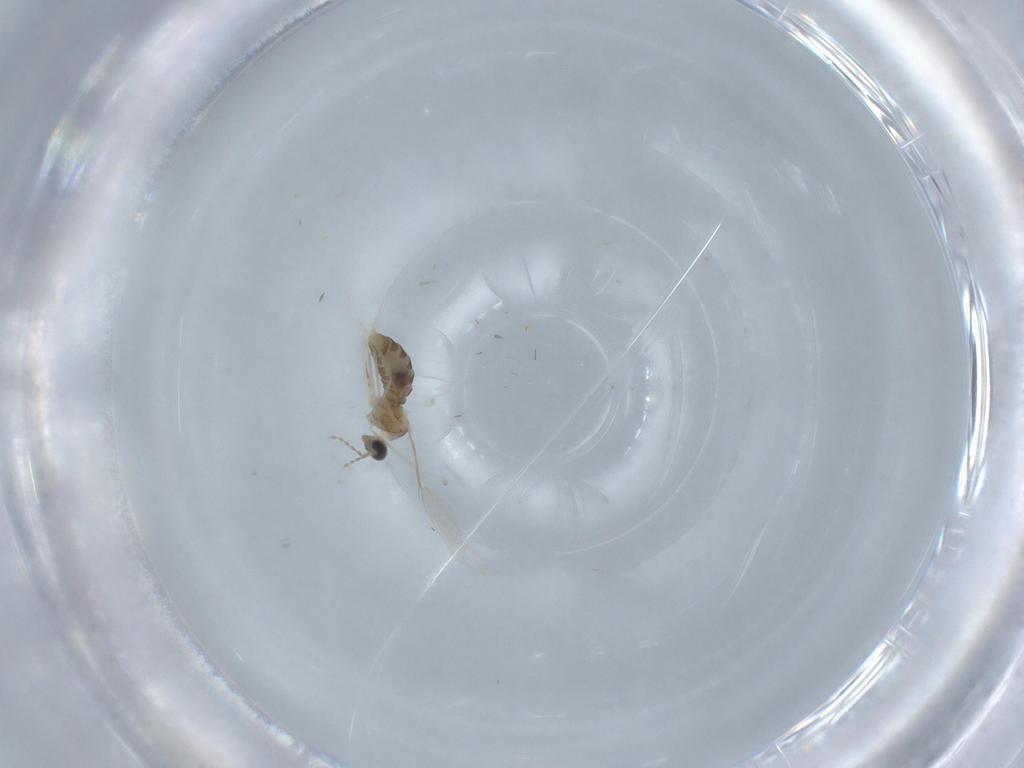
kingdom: Animalia
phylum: Arthropoda
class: Insecta
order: Diptera
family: Cecidomyiidae
